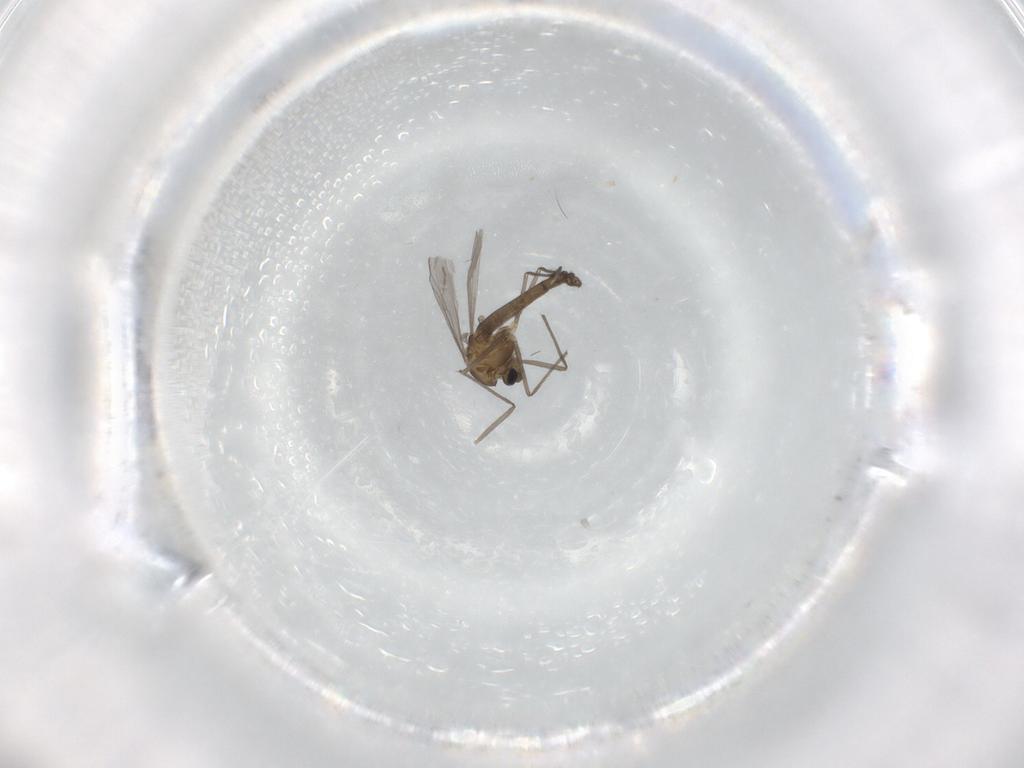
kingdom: Animalia
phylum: Arthropoda
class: Insecta
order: Diptera
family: Chironomidae
